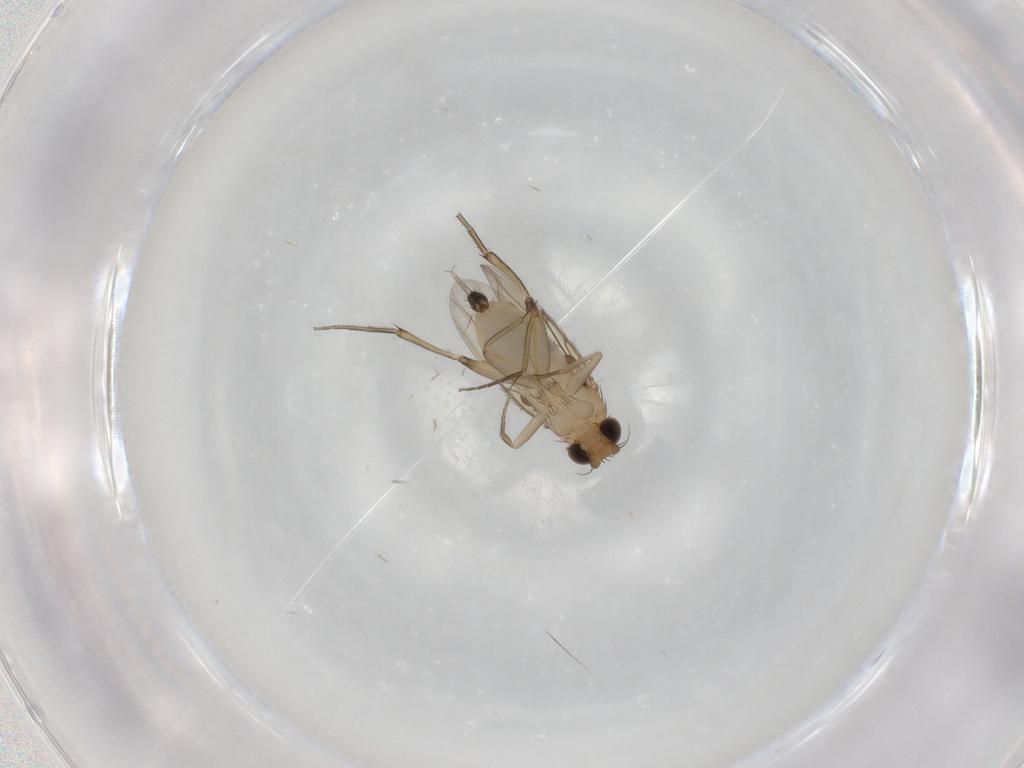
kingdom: Animalia
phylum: Arthropoda
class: Insecta
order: Diptera
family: Phoridae
